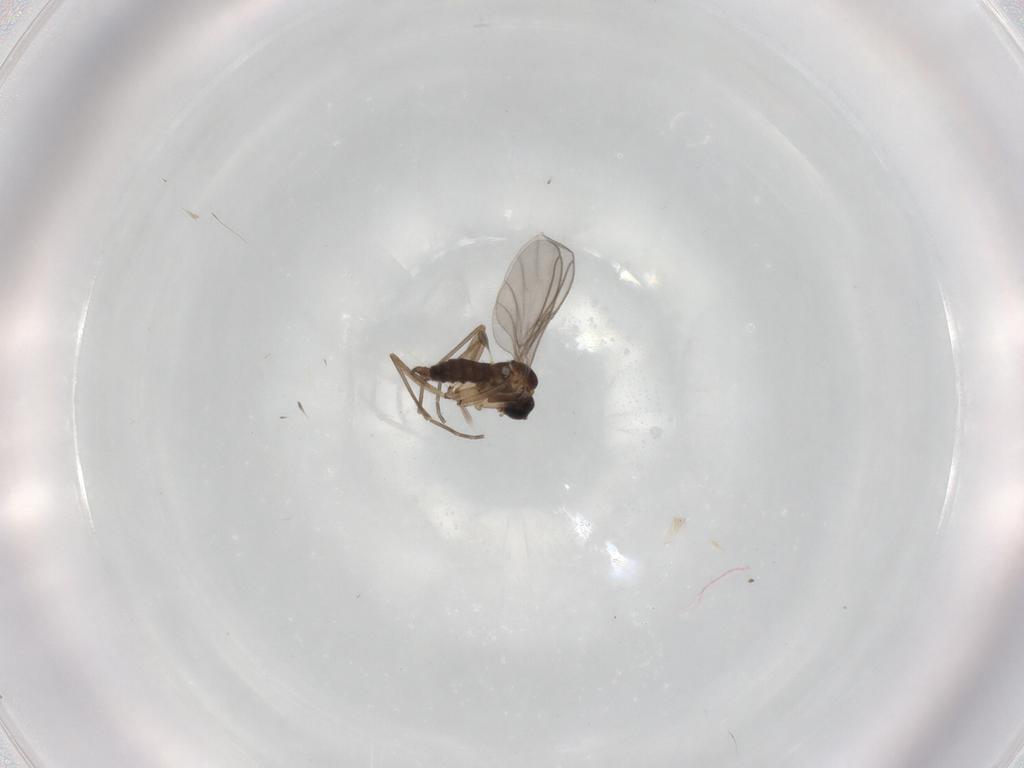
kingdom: Animalia
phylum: Arthropoda
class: Insecta
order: Diptera
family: Sciaridae
